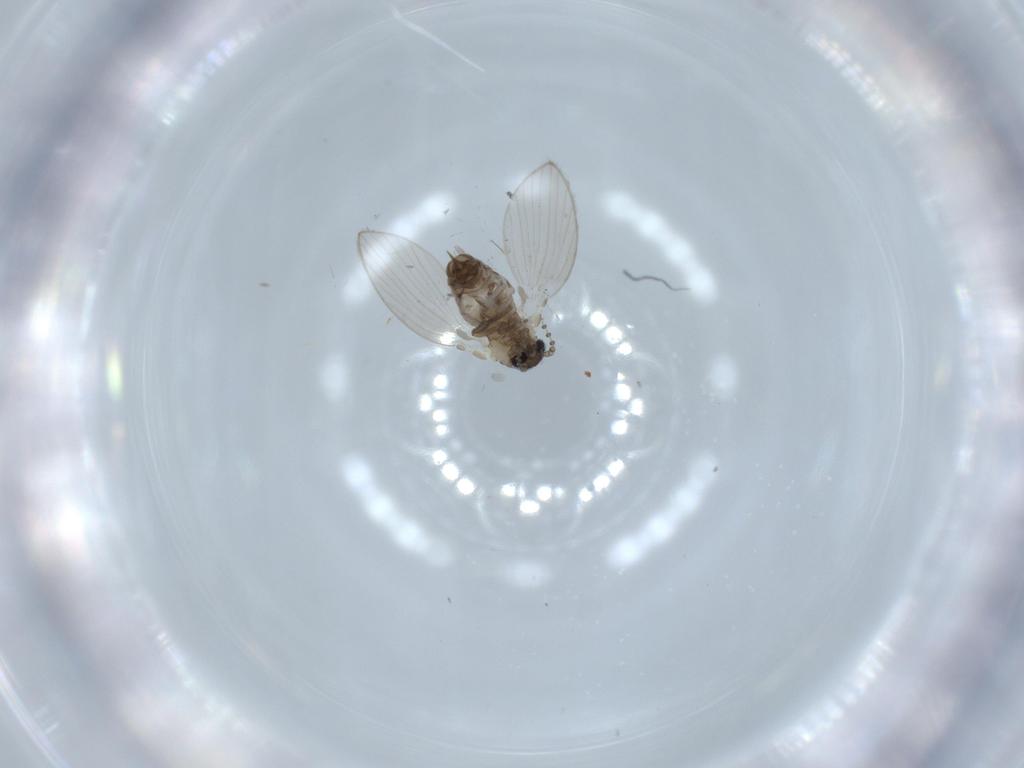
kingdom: Animalia
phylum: Arthropoda
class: Insecta
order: Diptera
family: Psychodidae
